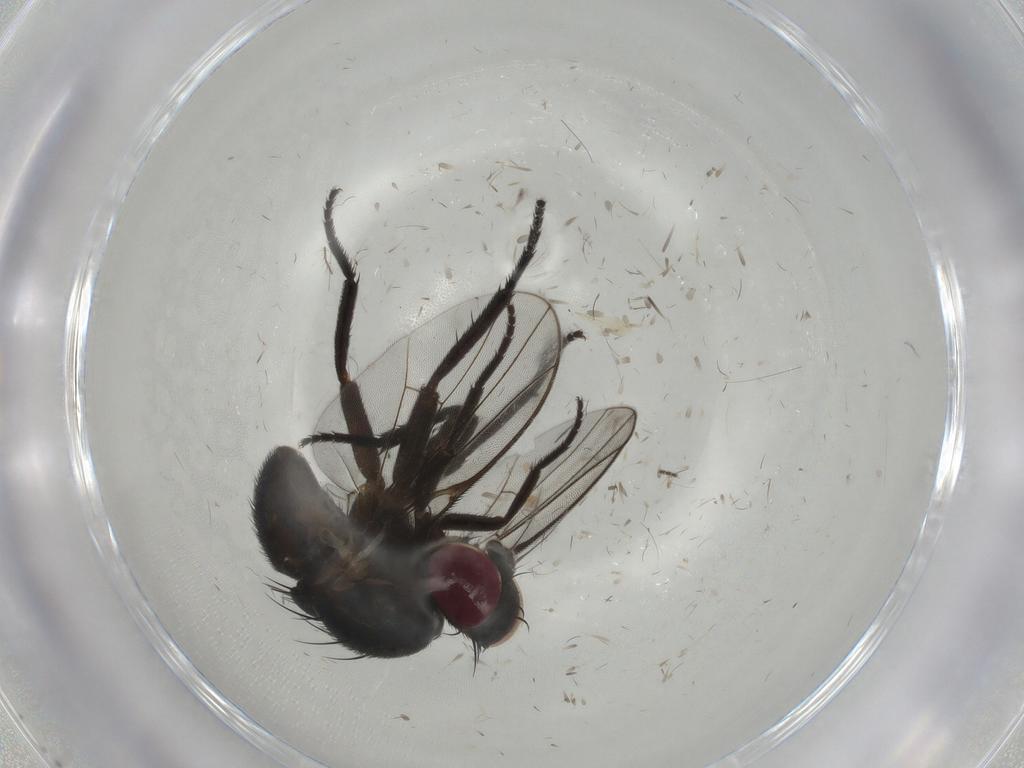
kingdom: Animalia
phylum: Arthropoda
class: Insecta
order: Diptera
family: Agromyzidae
